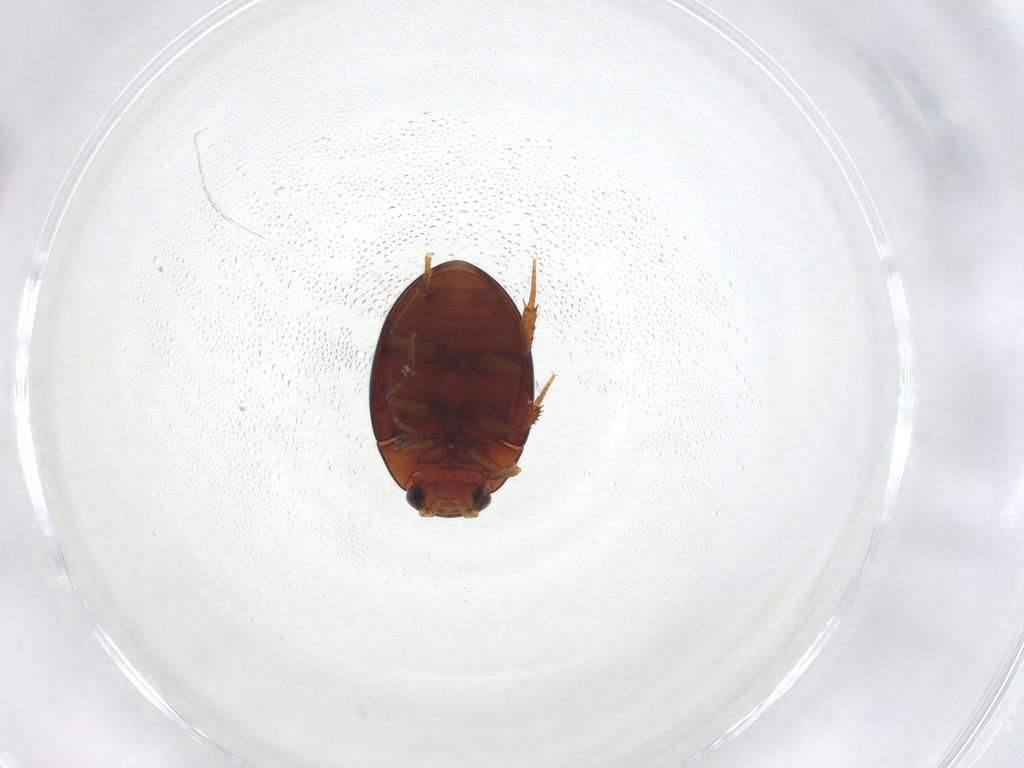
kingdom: Animalia
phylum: Arthropoda
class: Insecta
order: Coleoptera
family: Hydrophilidae
